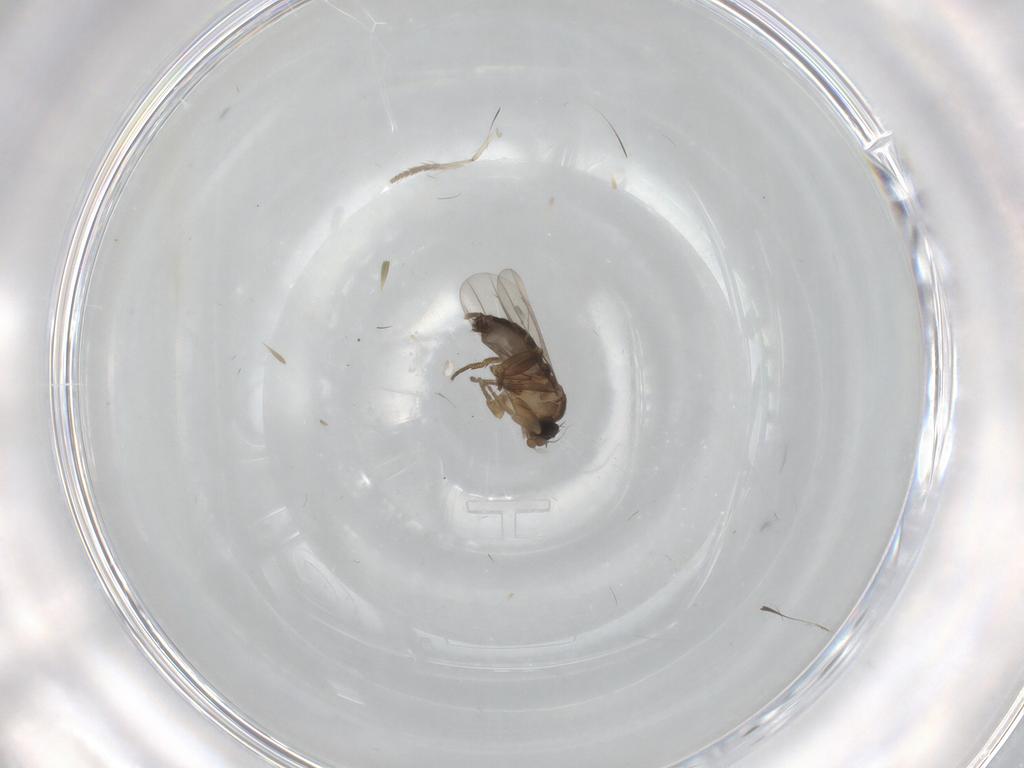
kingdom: Animalia
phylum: Arthropoda
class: Insecta
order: Diptera
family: Phoridae
